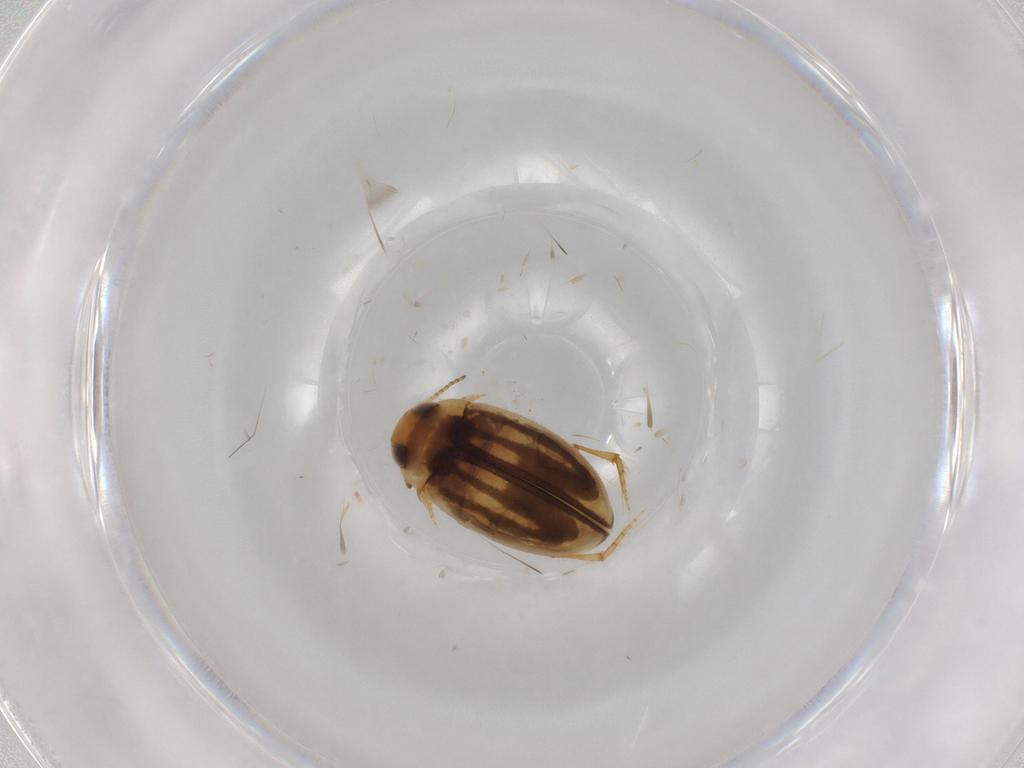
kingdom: Animalia
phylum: Arthropoda
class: Insecta
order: Coleoptera
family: Dytiscidae
